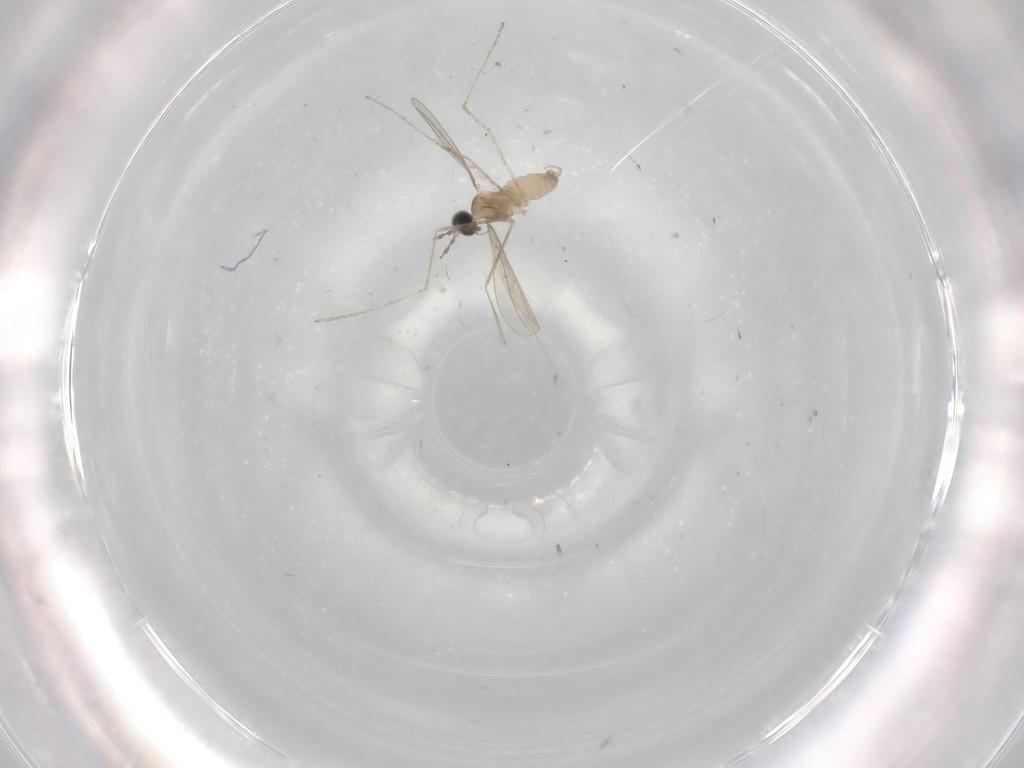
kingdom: Animalia
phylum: Arthropoda
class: Insecta
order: Diptera
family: Cecidomyiidae
